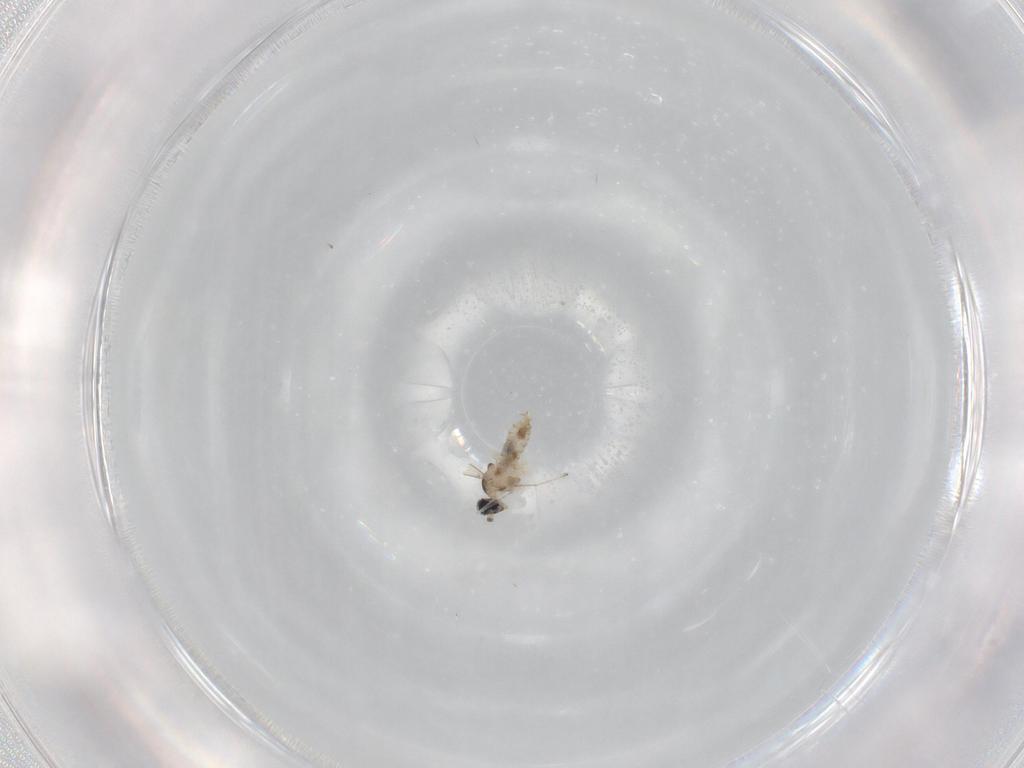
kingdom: Animalia
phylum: Arthropoda
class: Insecta
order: Diptera
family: Cecidomyiidae
